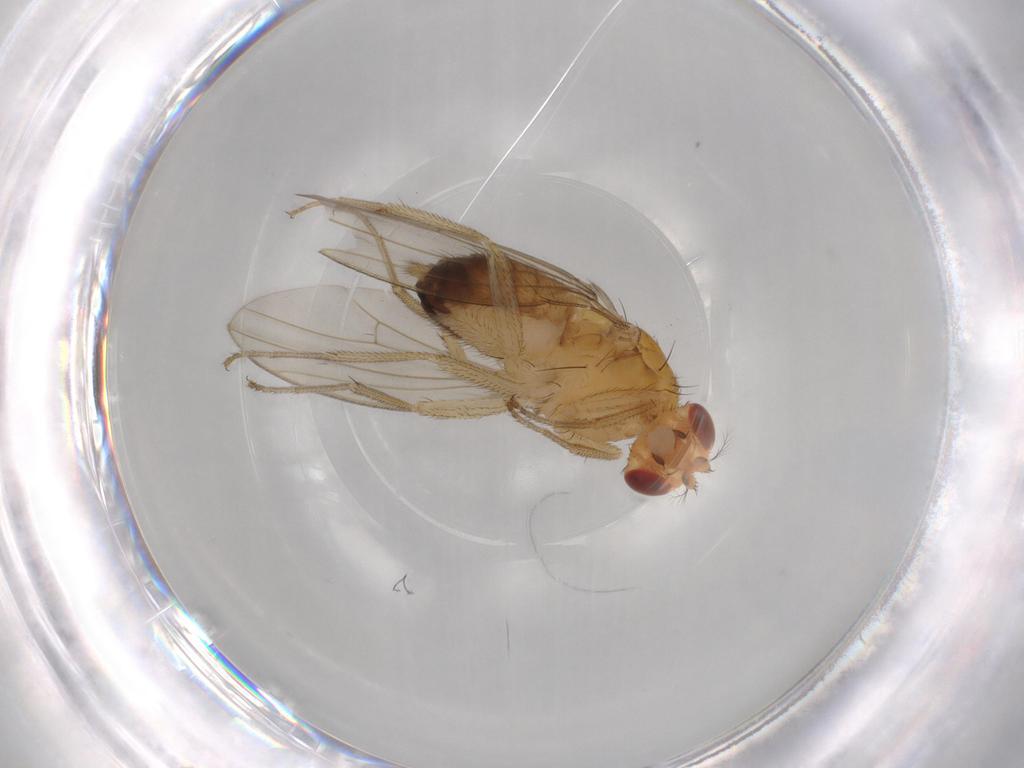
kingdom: Animalia
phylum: Arthropoda
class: Insecta
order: Diptera
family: Drosophilidae
